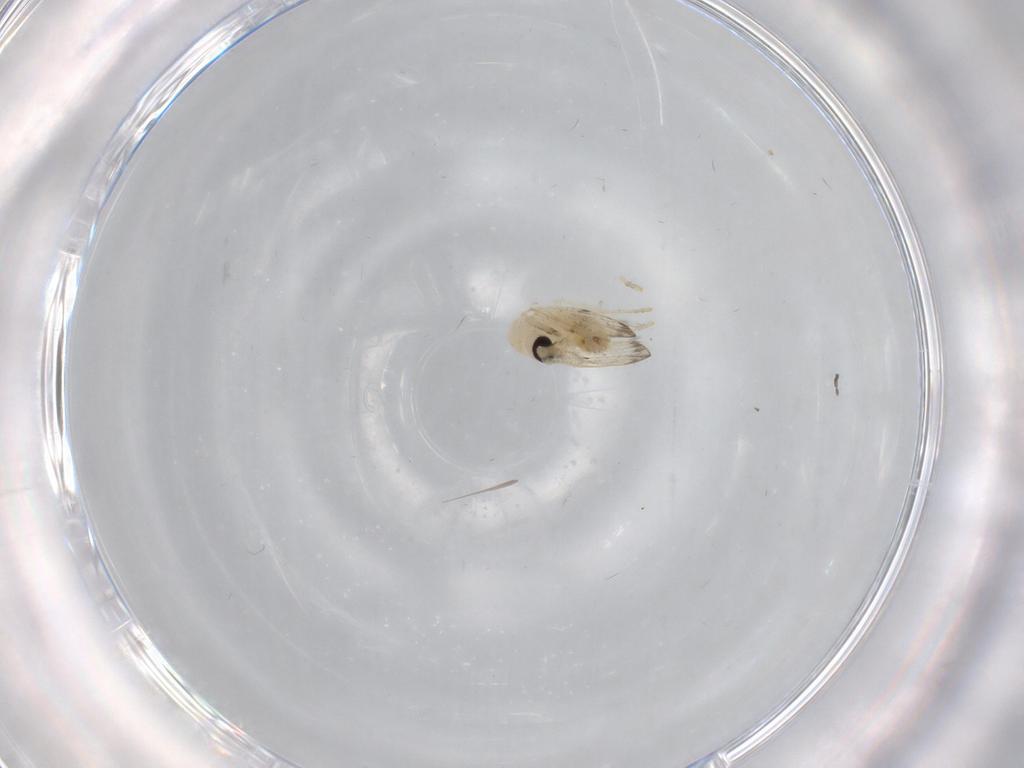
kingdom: Animalia
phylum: Arthropoda
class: Insecta
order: Diptera
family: Psychodidae
